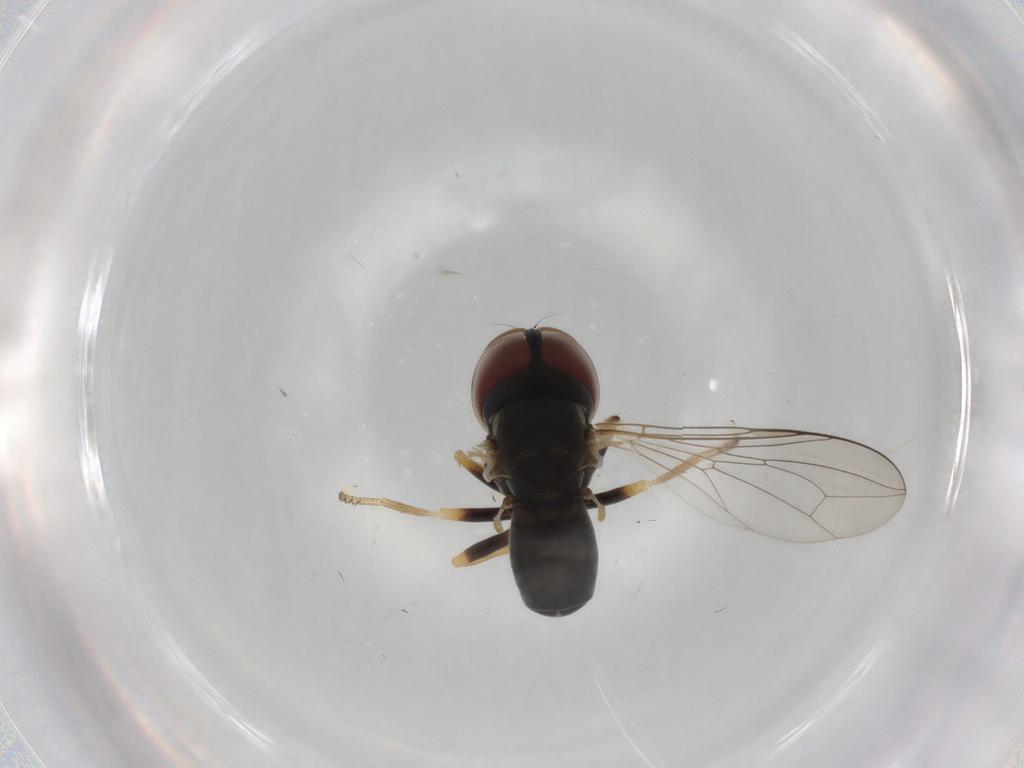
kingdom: Animalia
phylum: Arthropoda
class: Insecta
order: Diptera
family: Pipunculidae
